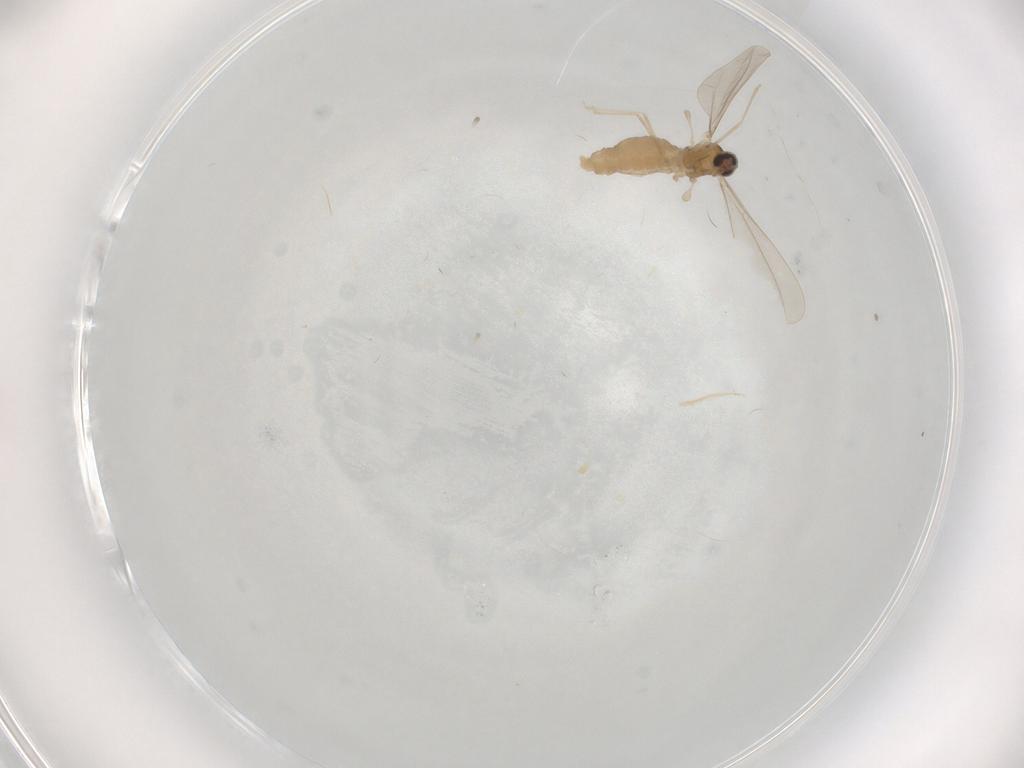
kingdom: Animalia
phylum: Arthropoda
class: Insecta
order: Diptera
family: Cecidomyiidae
